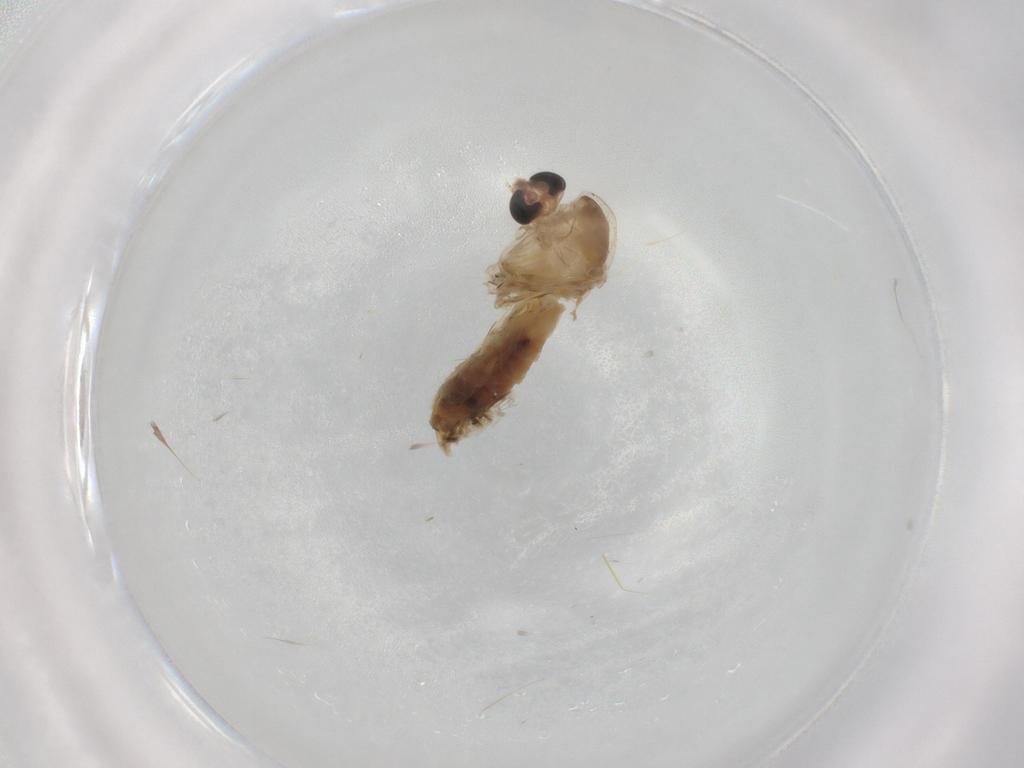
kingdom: Animalia
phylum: Arthropoda
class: Insecta
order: Diptera
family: Chironomidae
